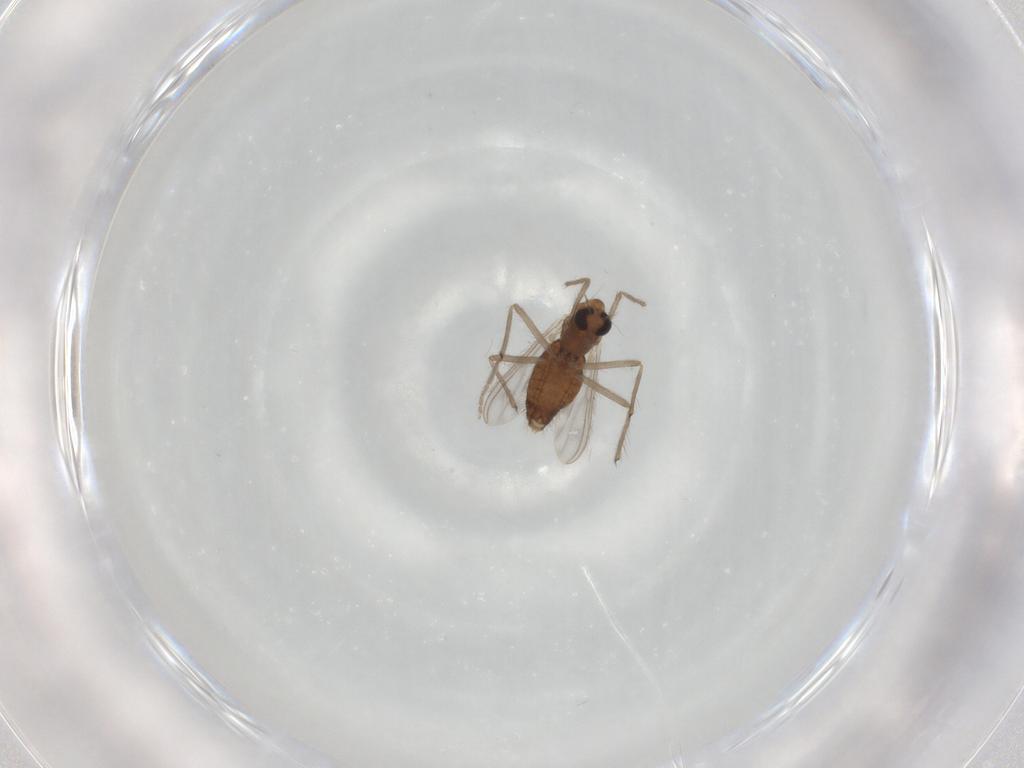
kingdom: Animalia
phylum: Arthropoda
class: Insecta
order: Diptera
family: Chironomidae
